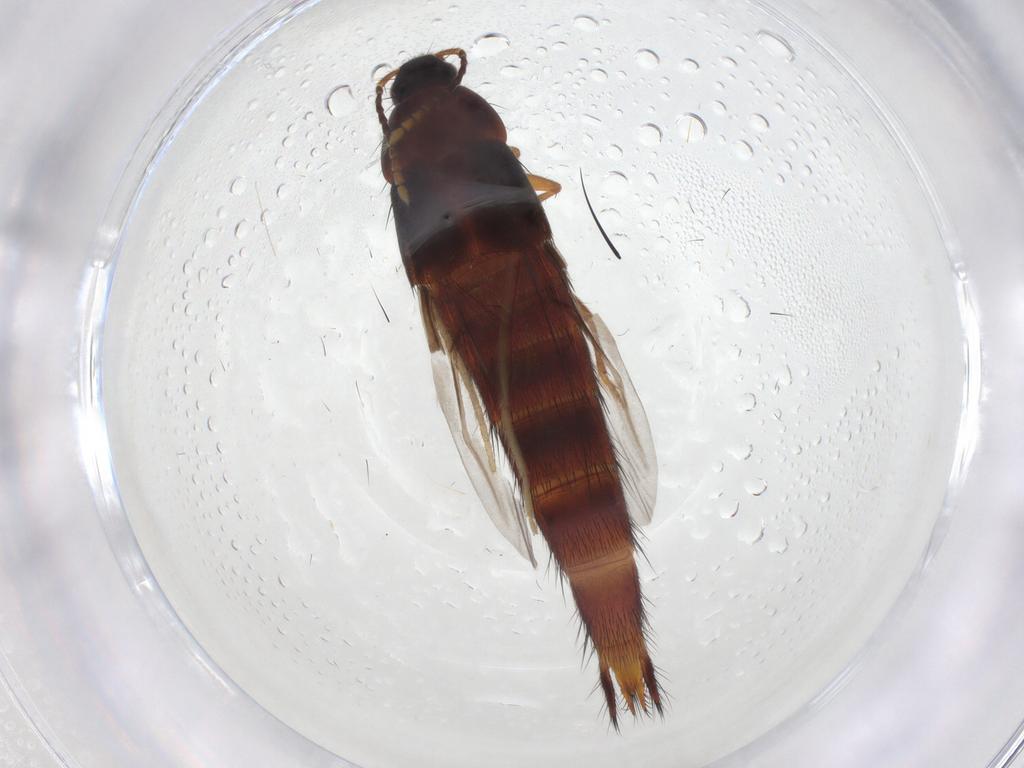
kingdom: Animalia
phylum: Arthropoda
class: Insecta
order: Coleoptera
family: Staphylinidae
